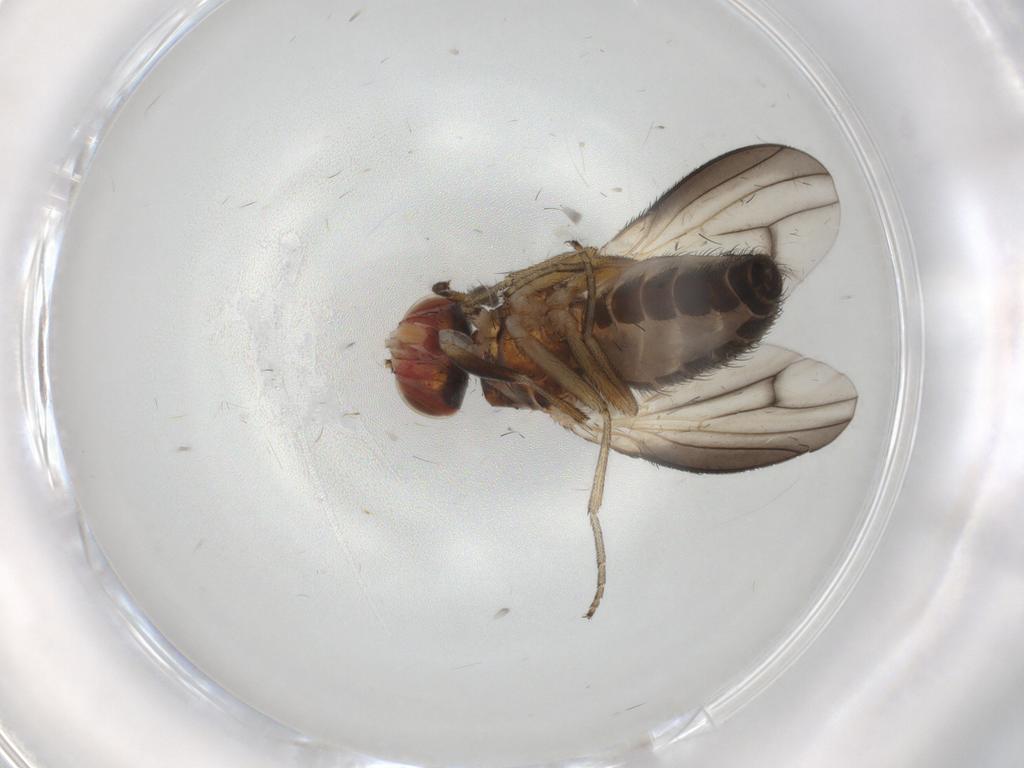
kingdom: Animalia
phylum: Arthropoda
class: Insecta
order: Diptera
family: Heleomyzidae
